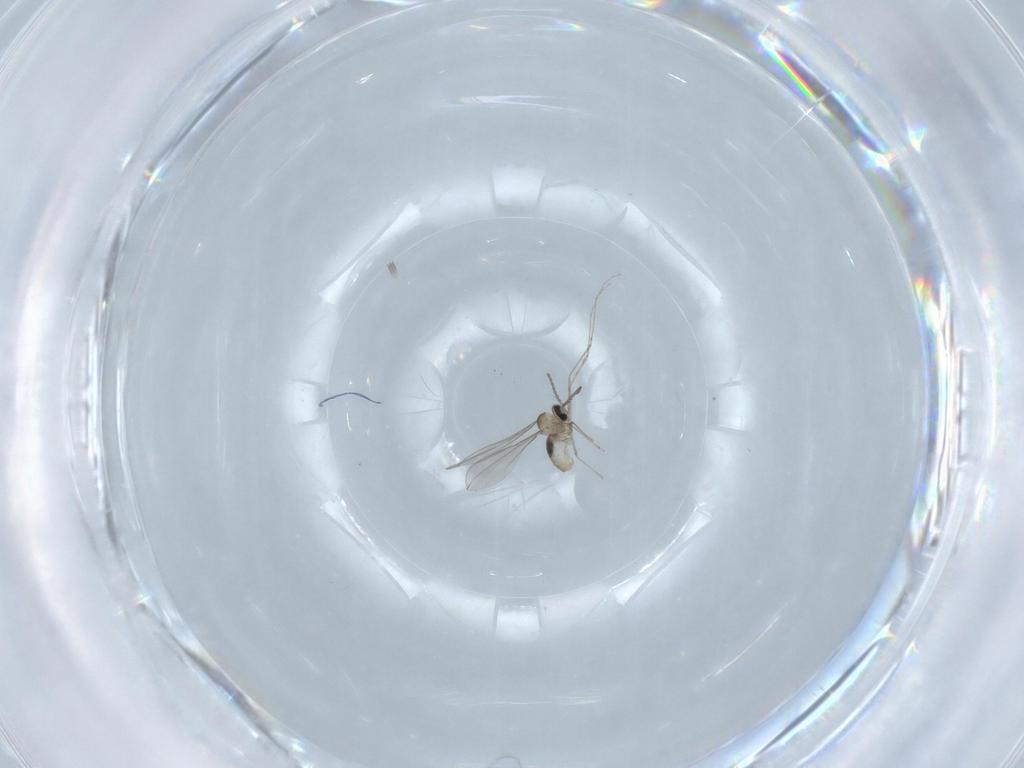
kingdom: Animalia
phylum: Arthropoda
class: Insecta
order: Diptera
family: Cecidomyiidae
